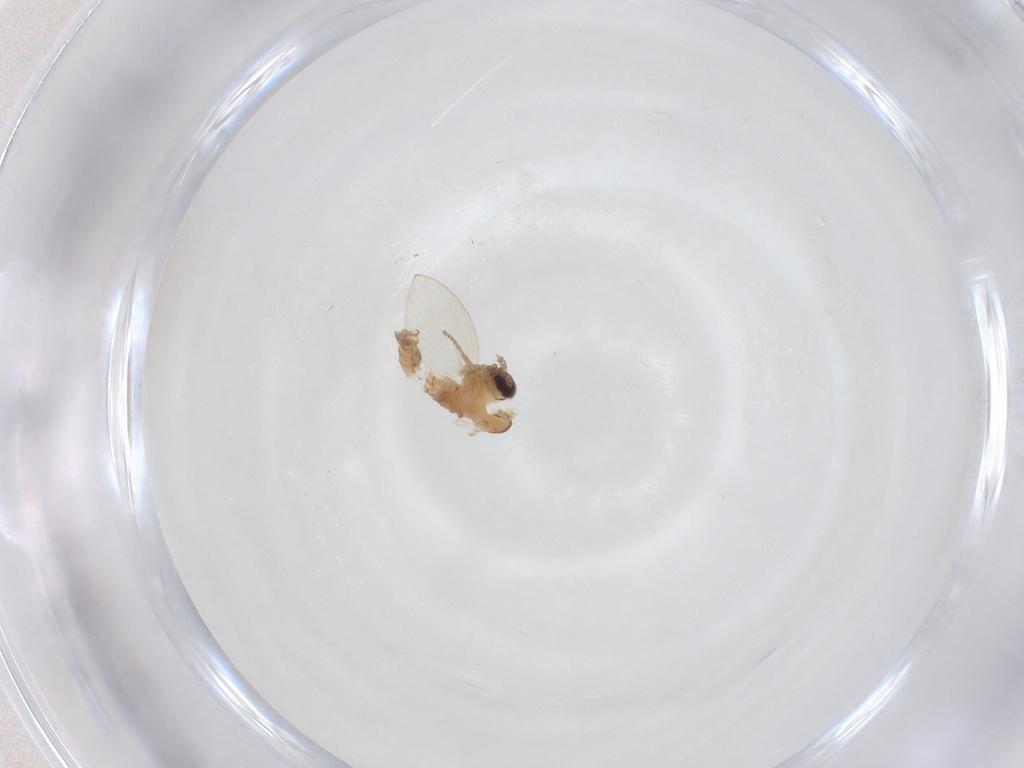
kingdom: Animalia
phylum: Arthropoda
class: Insecta
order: Diptera
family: Psychodidae
